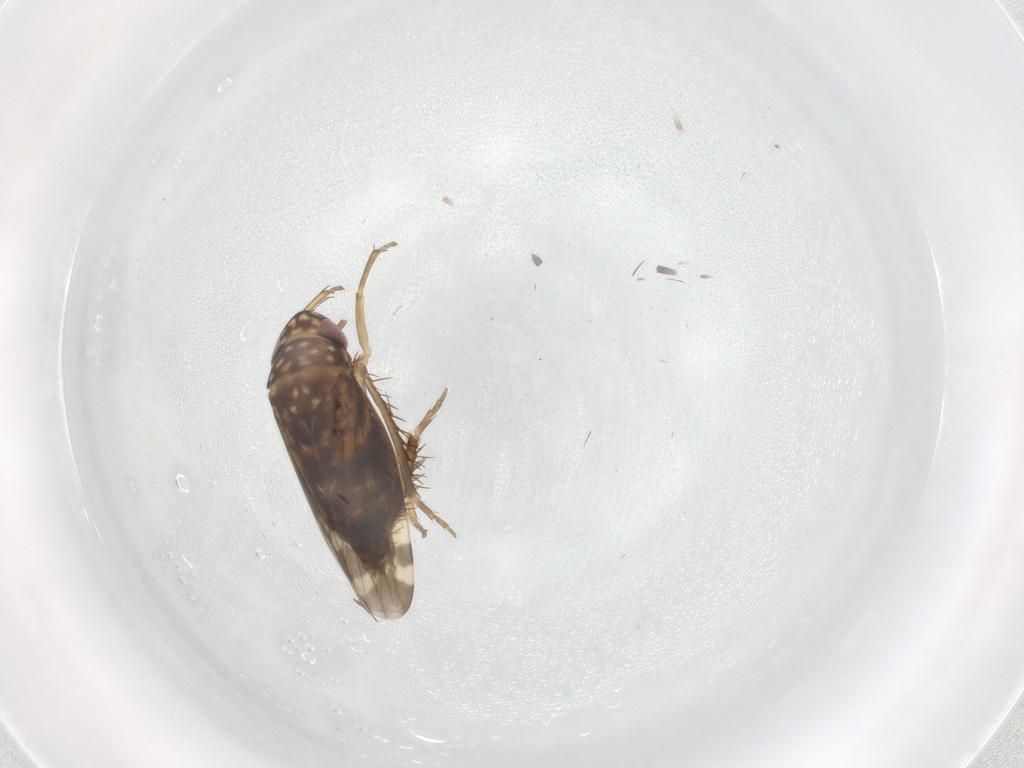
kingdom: Animalia
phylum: Arthropoda
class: Insecta
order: Hemiptera
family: Cicadellidae
